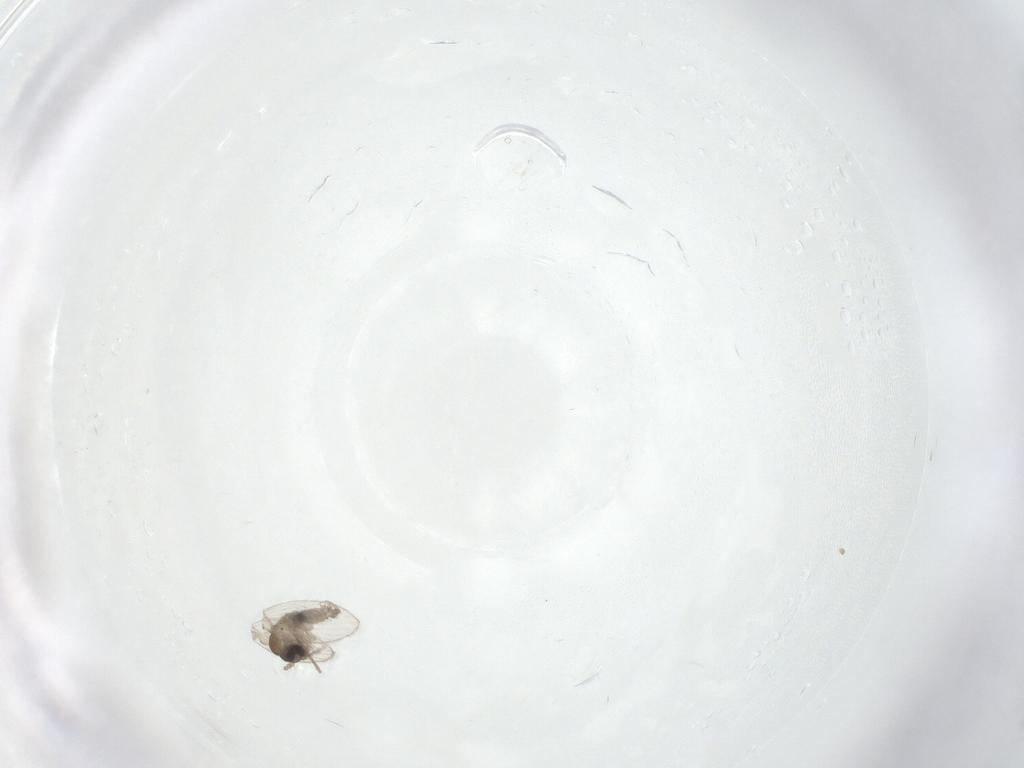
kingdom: Animalia
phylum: Arthropoda
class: Insecta
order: Diptera
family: Psychodidae
